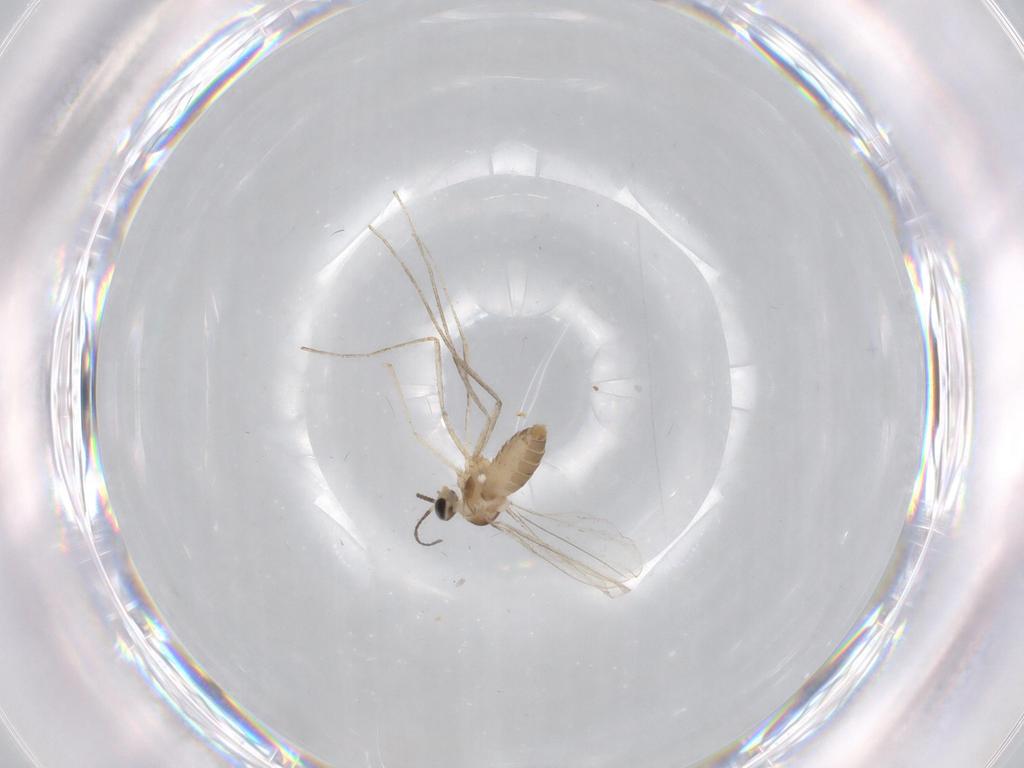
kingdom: Animalia
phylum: Arthropoda
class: Insecta
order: Diptera
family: Cecidomyiidae
